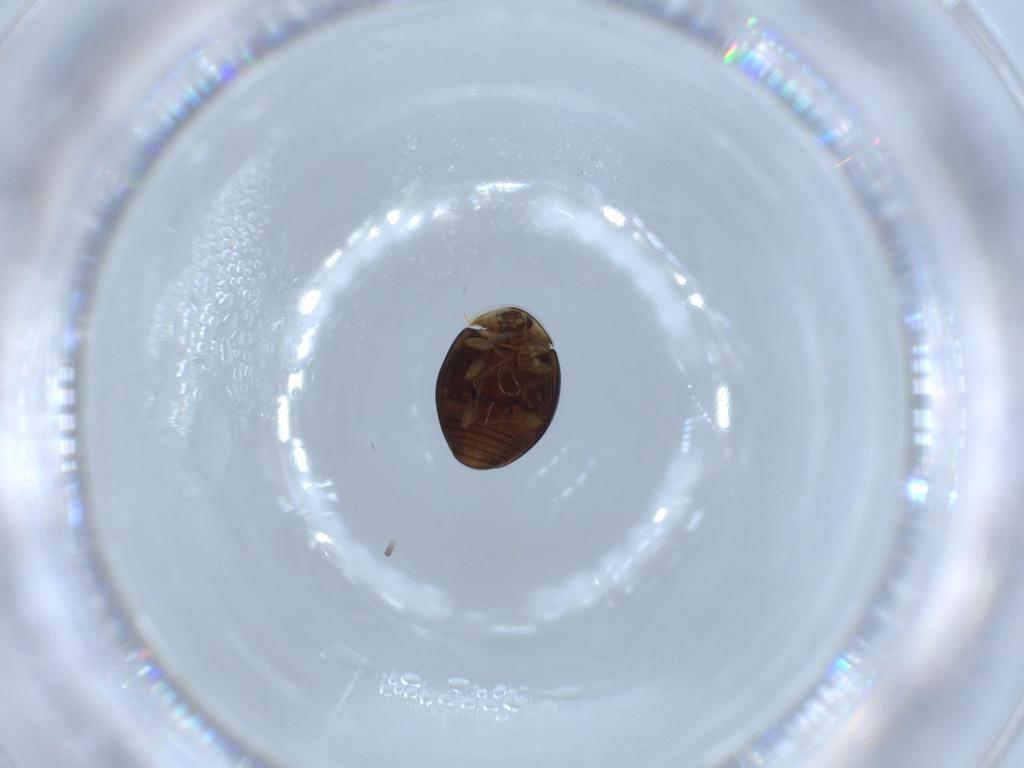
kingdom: Animalia
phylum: Arthropoda
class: Insecta
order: Coleoptera
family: Corylophidae
